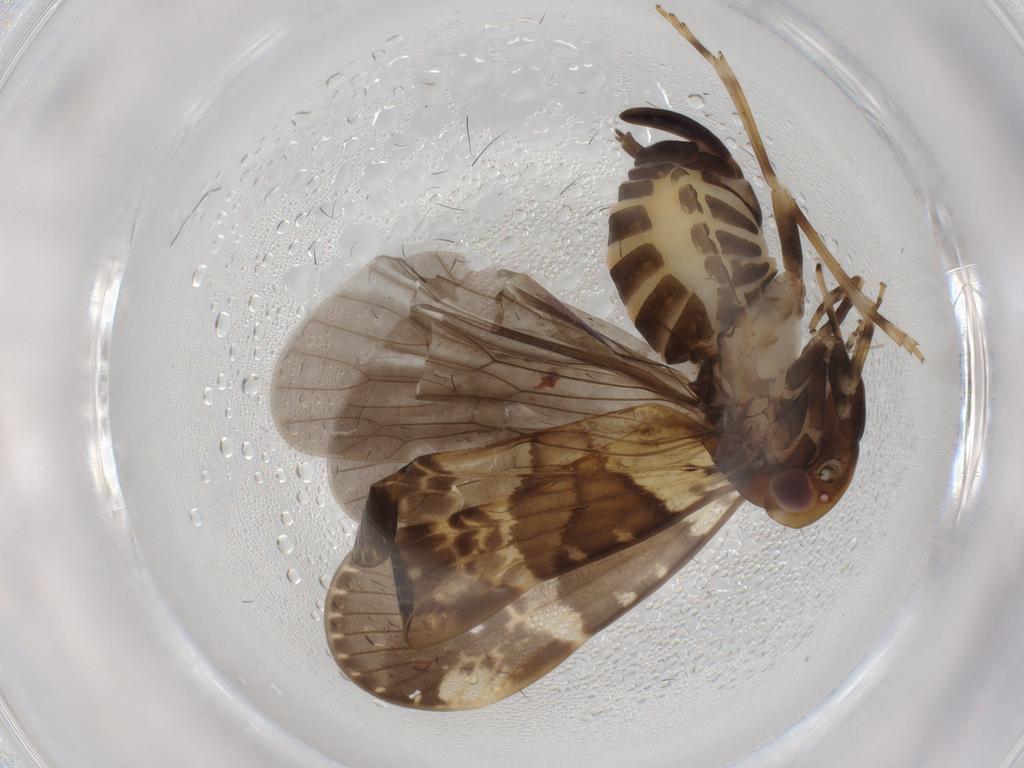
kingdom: Animalia
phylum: Arthropoda
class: Insecta
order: Hemiptera
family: Cixiidae
